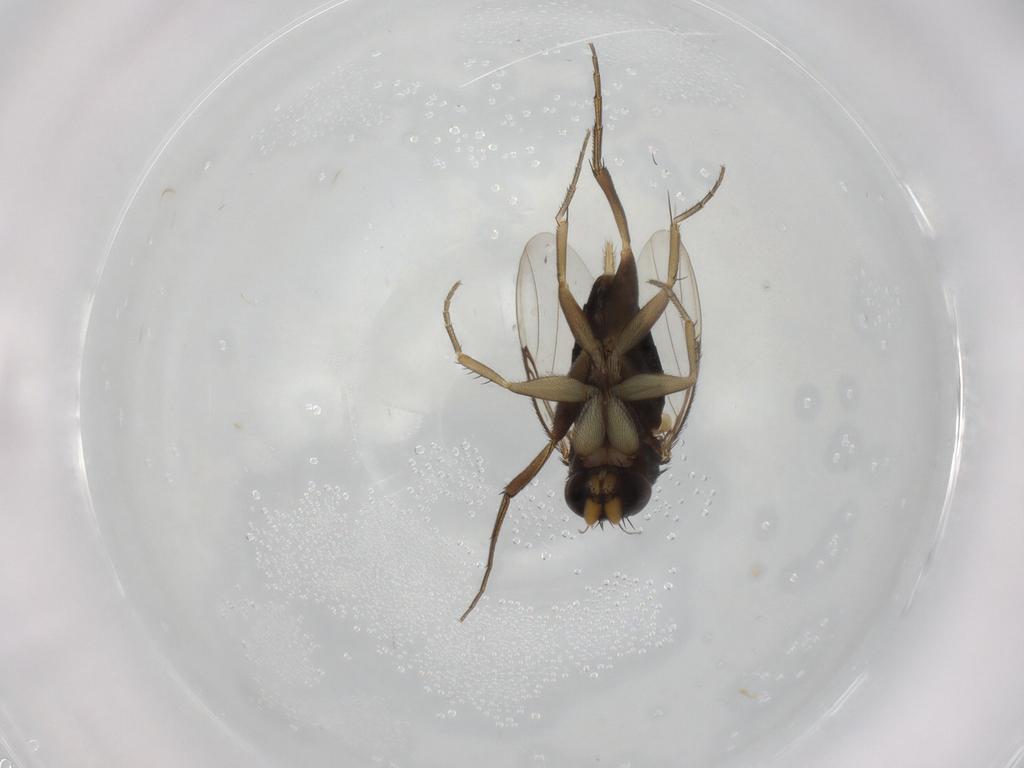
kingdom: Animalia
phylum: Arthropoda
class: Insecta
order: Diptera
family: Phoridae
